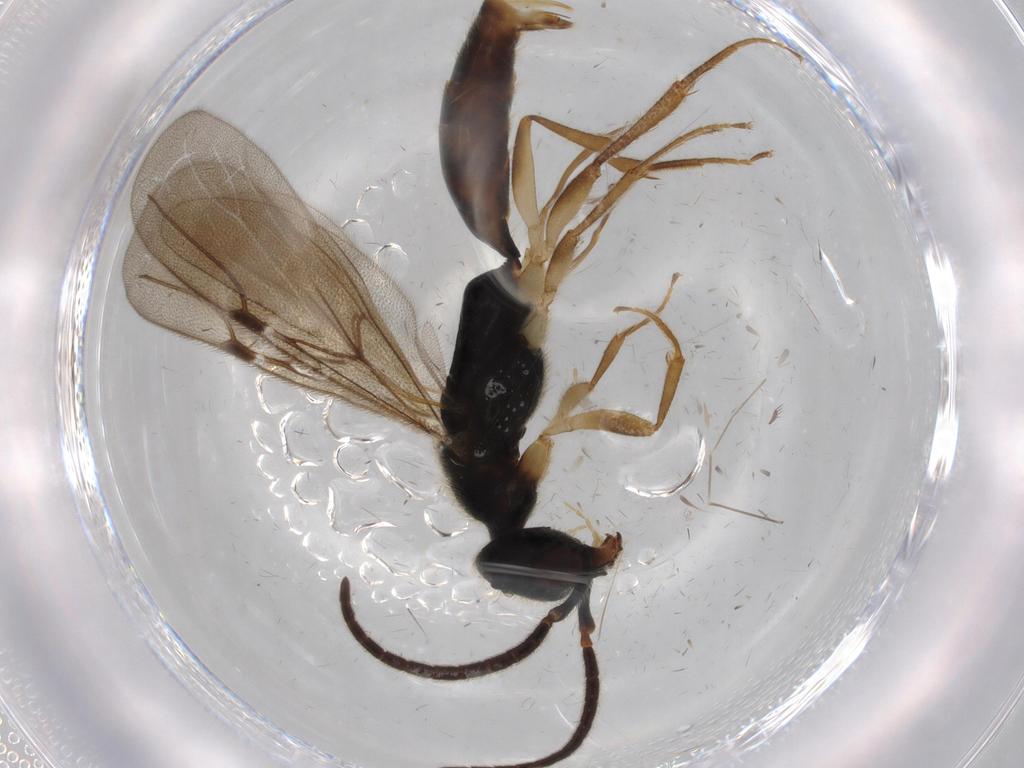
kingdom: Animalia
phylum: Arthropoda
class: Insecta
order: Hymenoptera
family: Bethylidae
